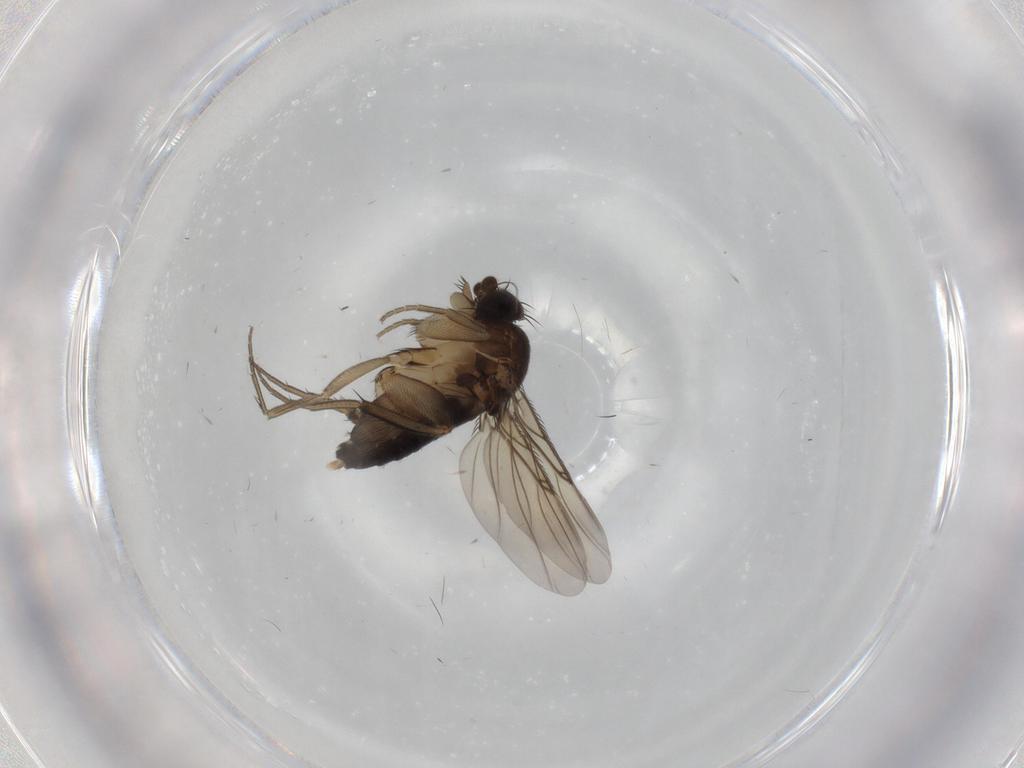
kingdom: Animalia
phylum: Arthropoda
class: Insecta
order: Diptera
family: Phoridae
